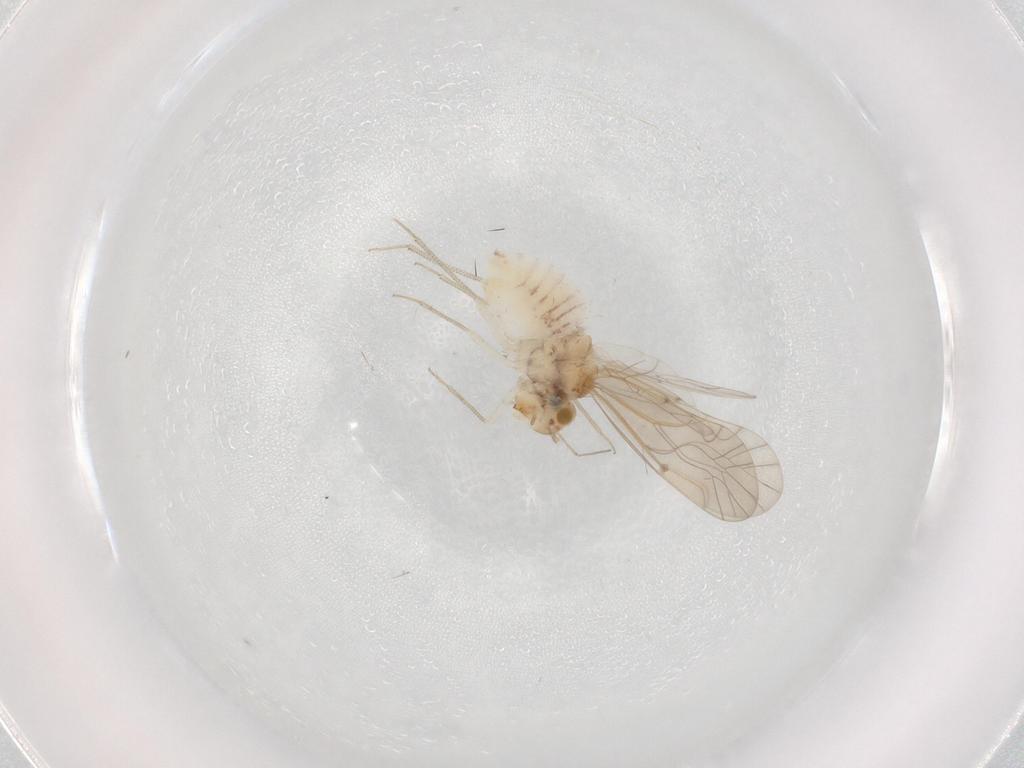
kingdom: Animalia
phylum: Arthropoda
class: Insecta
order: Psocodea
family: Lachesillidae
